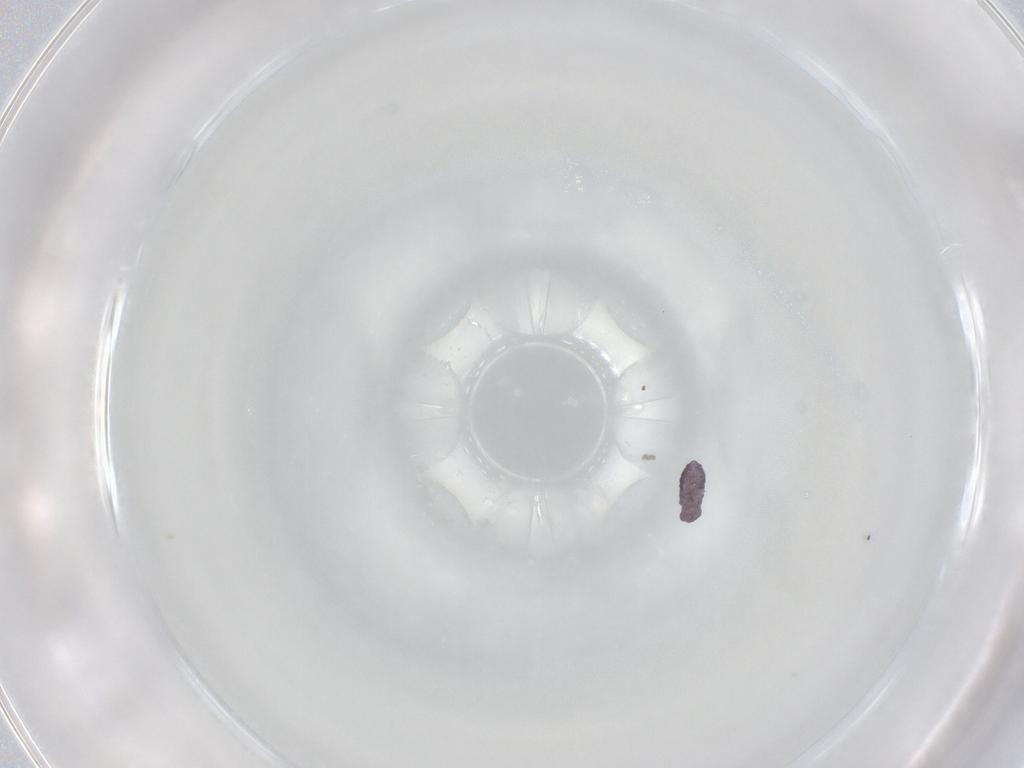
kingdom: Animalia
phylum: Arthropoda
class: Collembola
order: Poduromorpha
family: Brachystomellidae
